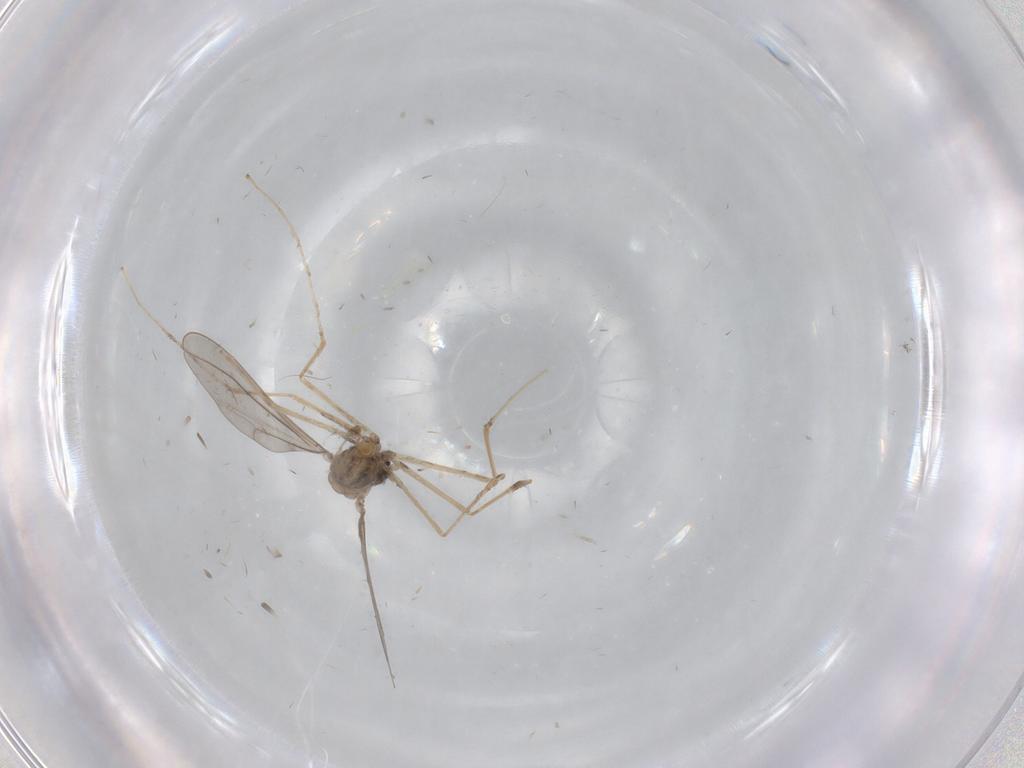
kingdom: Animalia
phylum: Arthropoda
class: Insecta
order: Diptera
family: Cecidomyiidae
